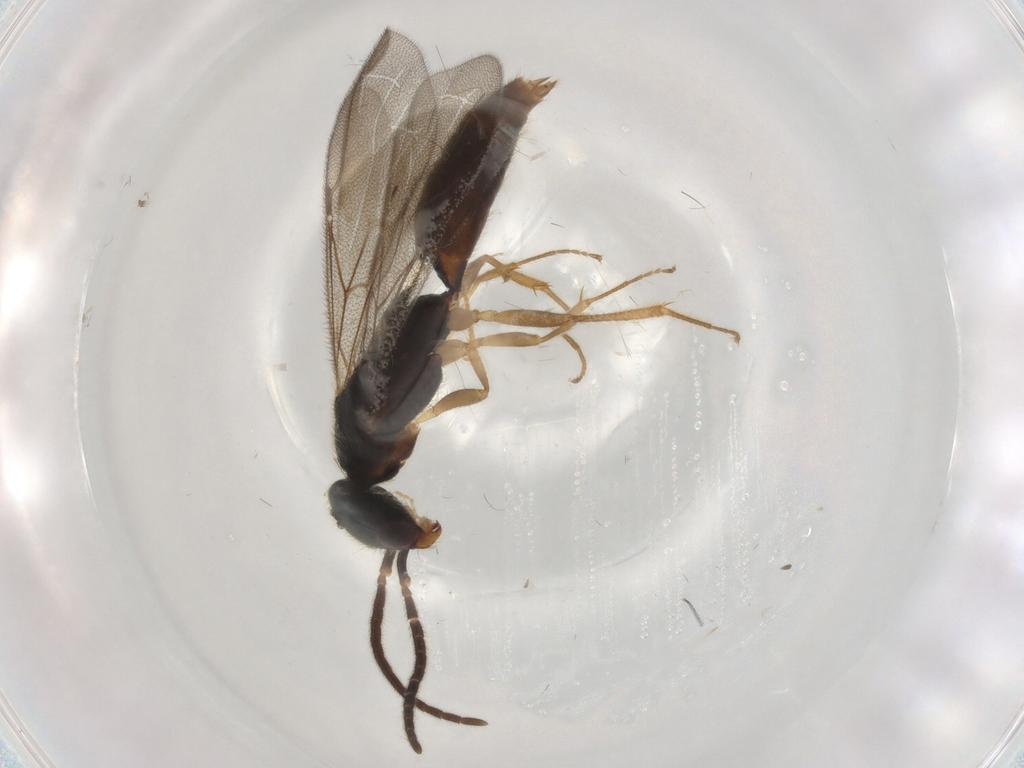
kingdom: Animalia
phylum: Arthropoda
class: Insecta
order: Hymenoptera
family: Bethylidae
